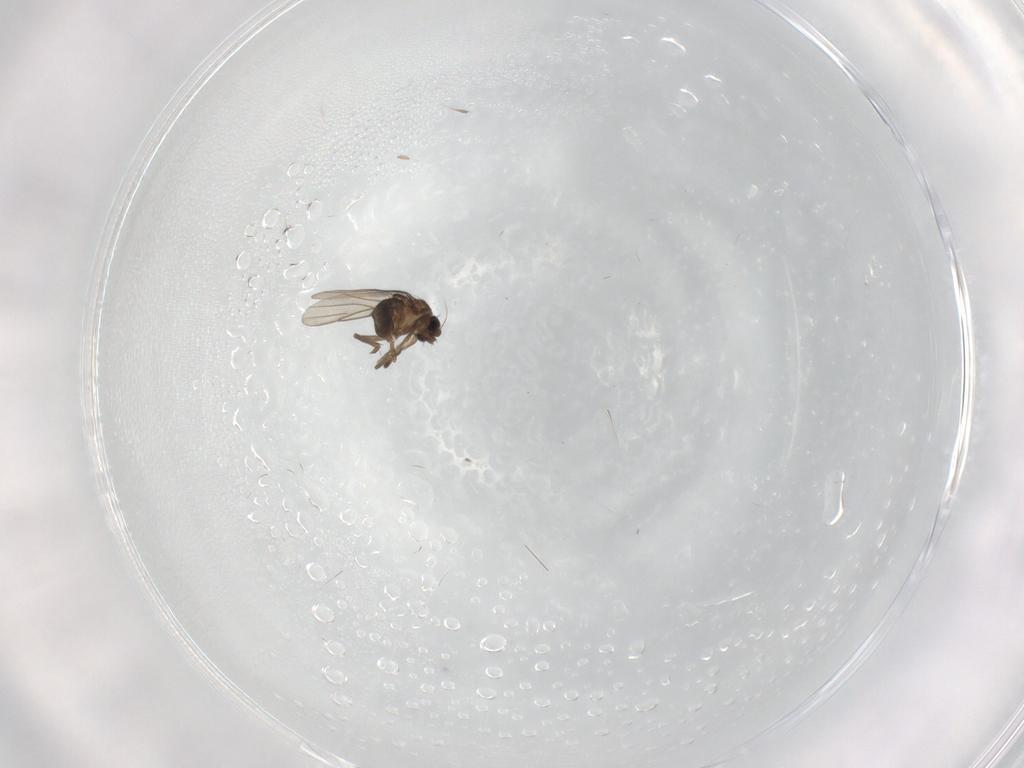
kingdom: Animalia
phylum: Arthropoda
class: Insecta
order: Diptera
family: Phoridae
